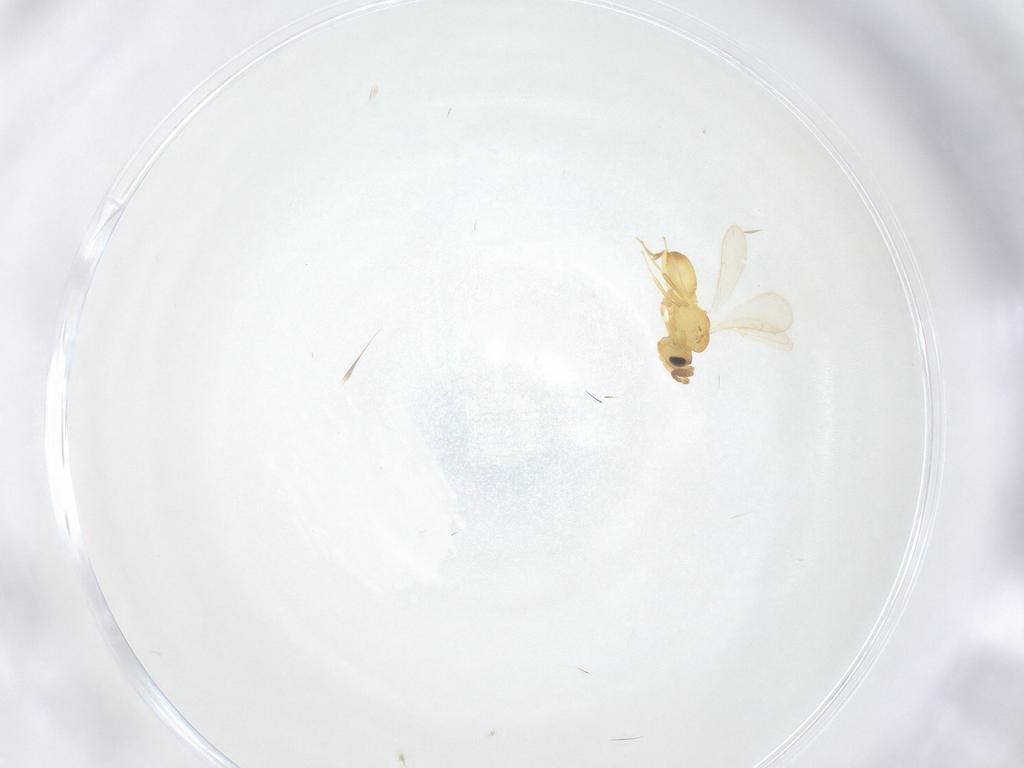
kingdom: Animalia
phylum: Arthropoda
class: Insecta
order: Hymenoptera
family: Scelionidae
